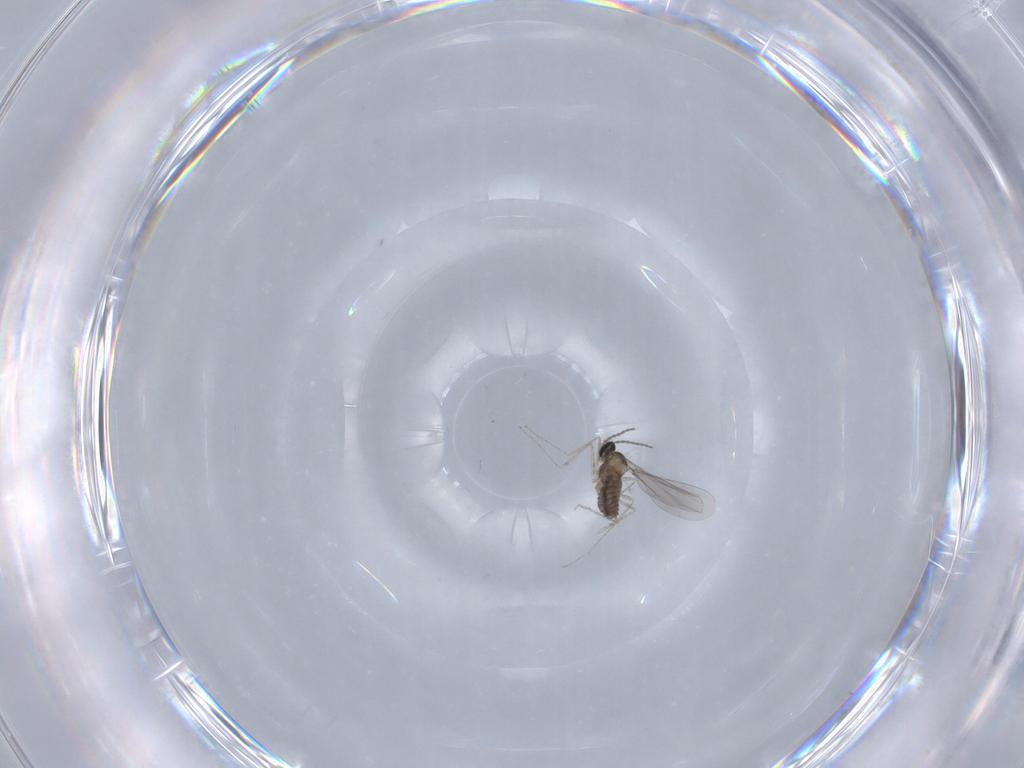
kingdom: Animalia
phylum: Arthropoda
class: Insecta
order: Diptera
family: Cecidomyiidae
